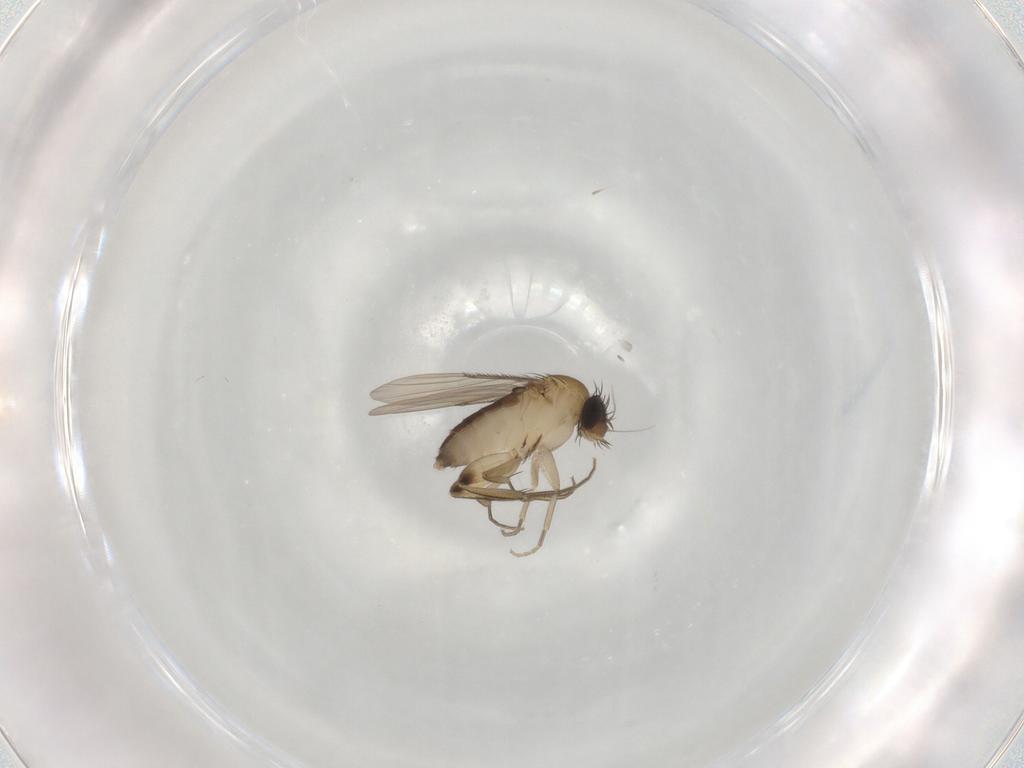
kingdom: Animalia
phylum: Arthropoda
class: Insecta
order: Diptera
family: Phoridae
